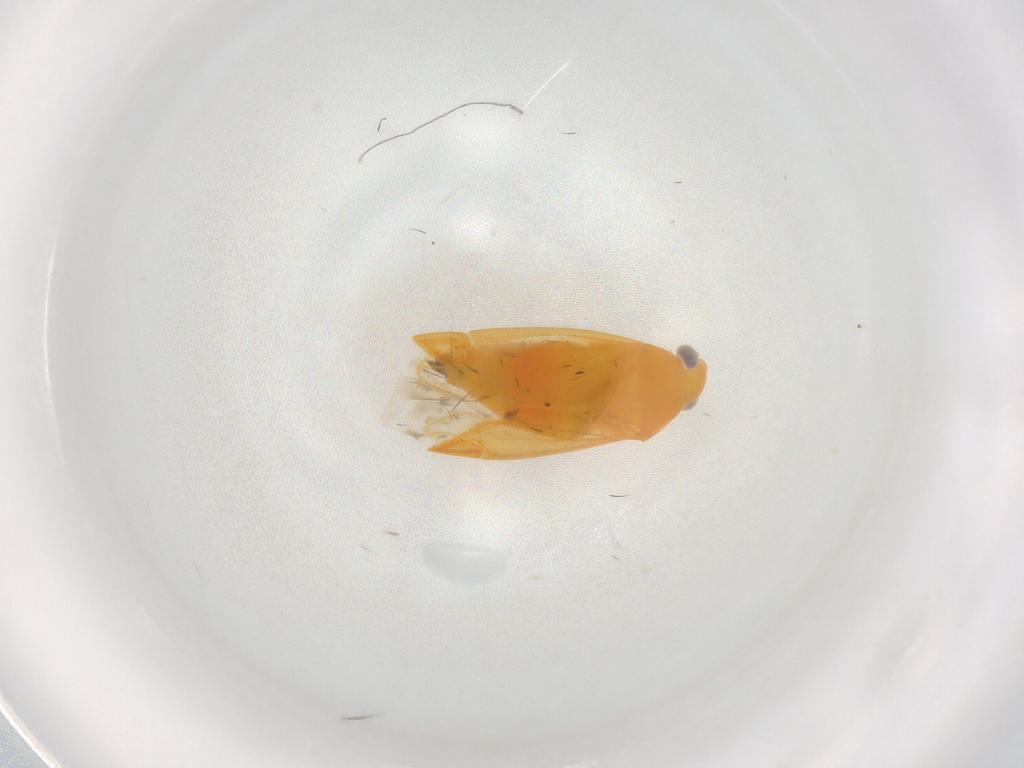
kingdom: Animalia
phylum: Arthropoda
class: Insecta
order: Hemiptera
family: Miridae
